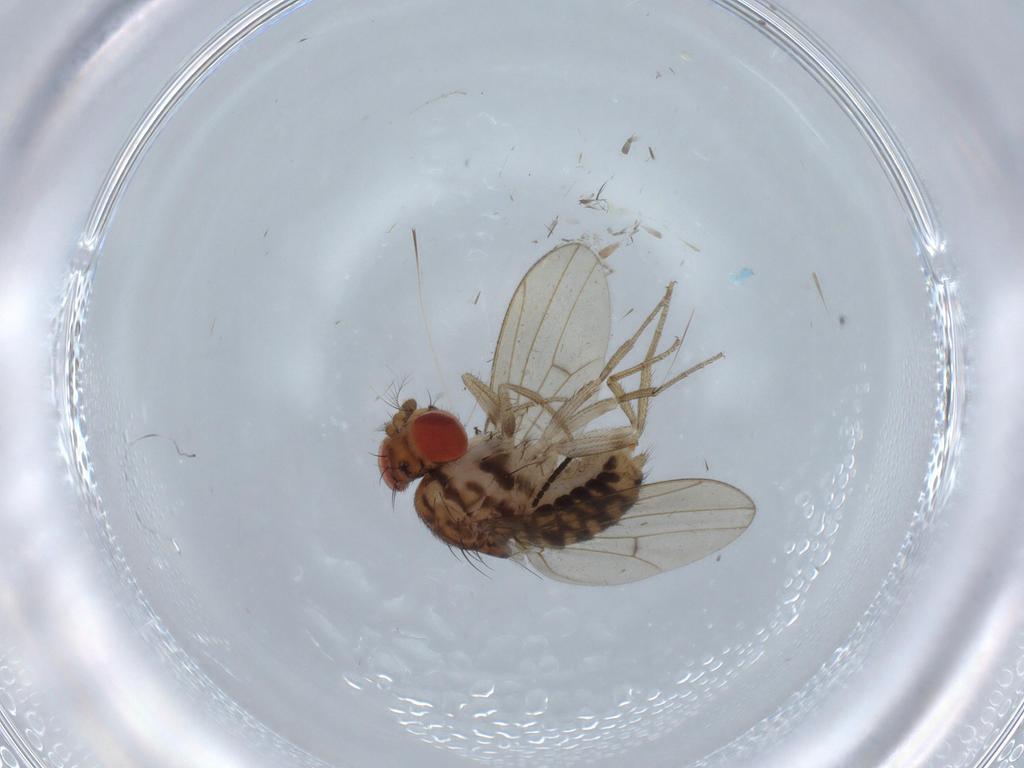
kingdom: Animalia
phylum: Arthropoda
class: Insecta
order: Diptera
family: Drosophilidae
